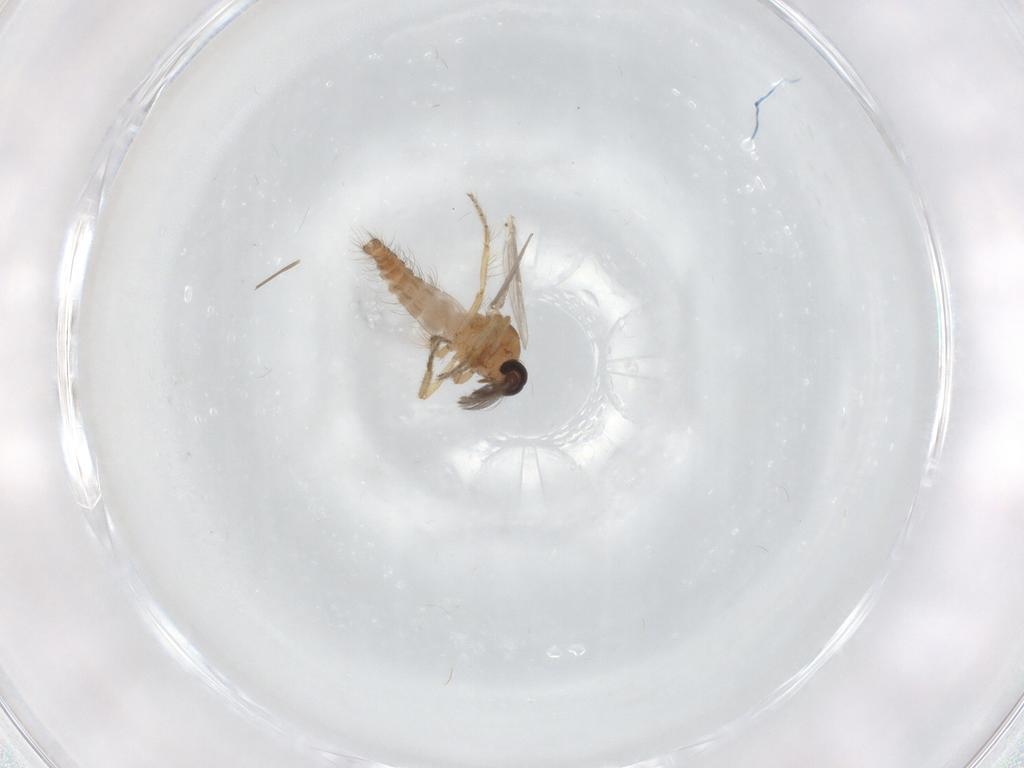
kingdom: Animalia
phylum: Arthropoda
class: Insecta
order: Diptera
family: Chironomidae
